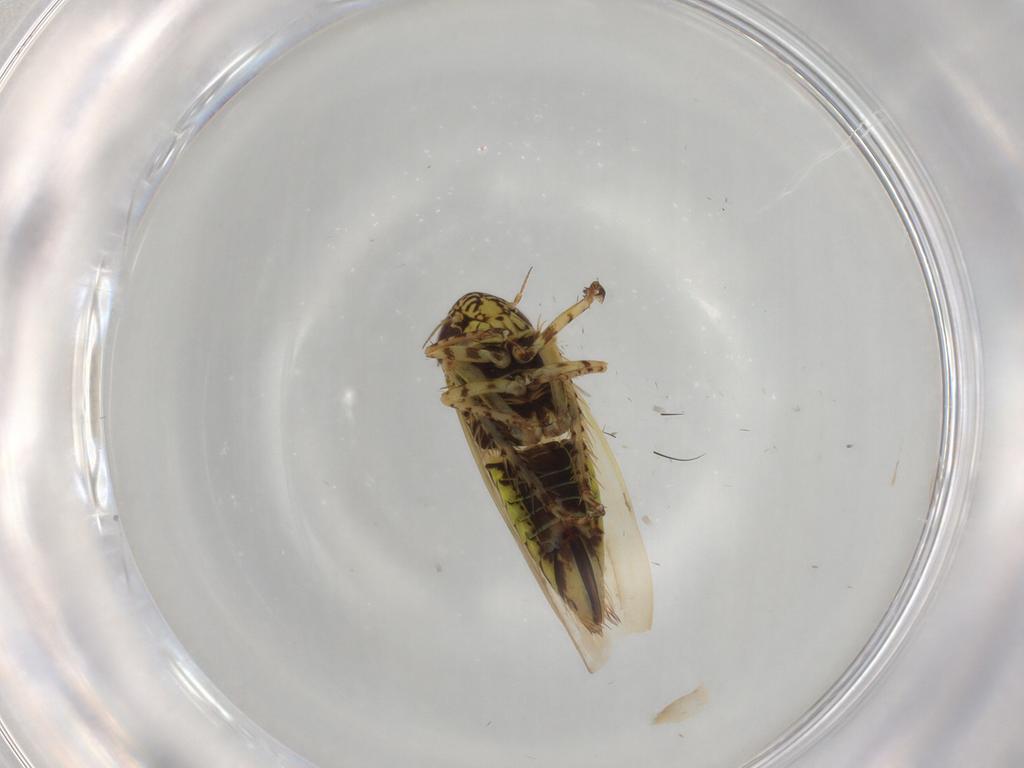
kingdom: Animalia
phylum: Arthropoda
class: Insecta
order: Hemiptera
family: Cicadellidae
